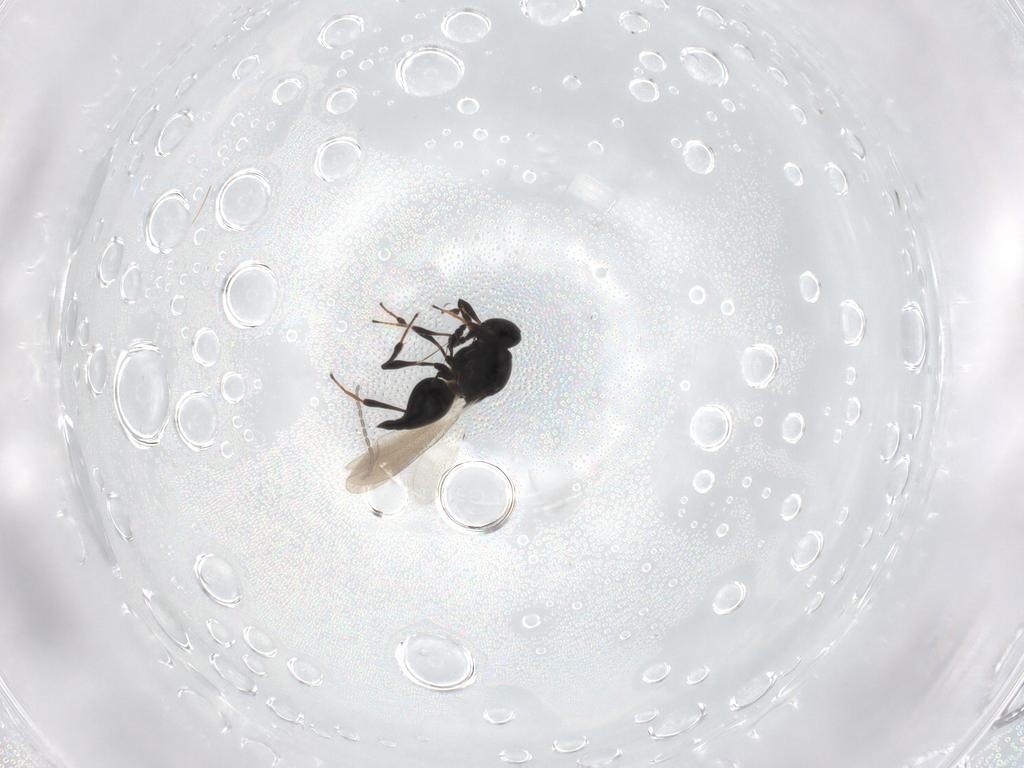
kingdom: Animalia
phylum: Arthropoda
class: Insecta
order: Hymenoptera
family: Platygastridae
